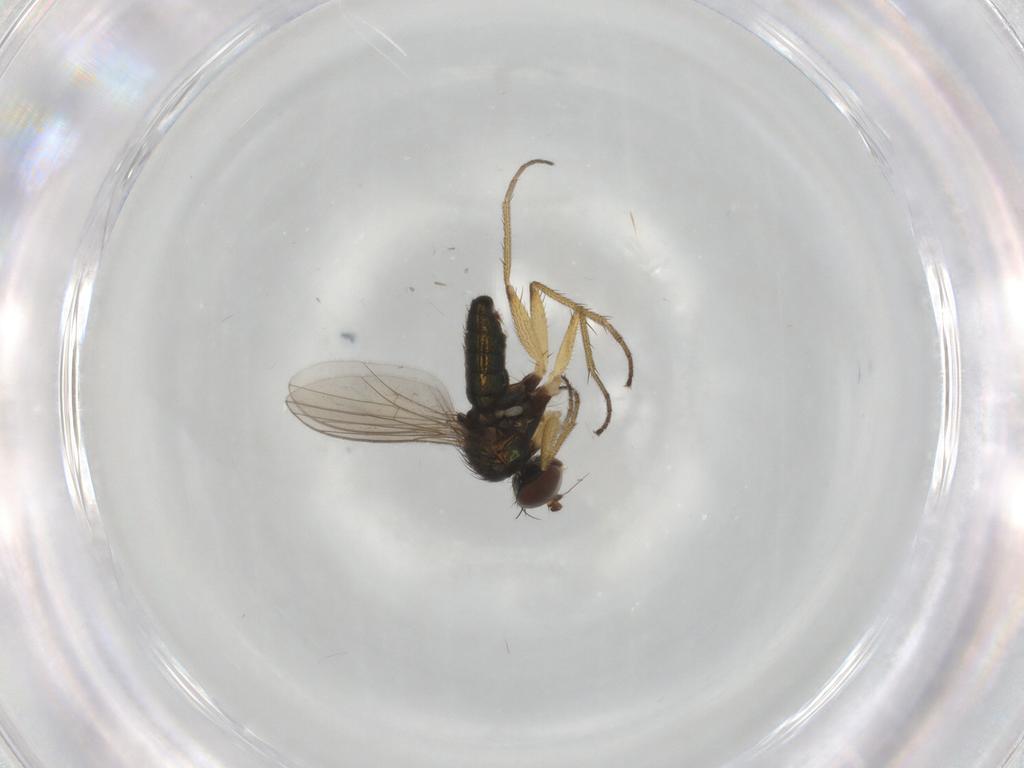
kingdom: Animalia
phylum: Arthropoda
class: Insecta
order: Diptera
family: Dolichopodidae
